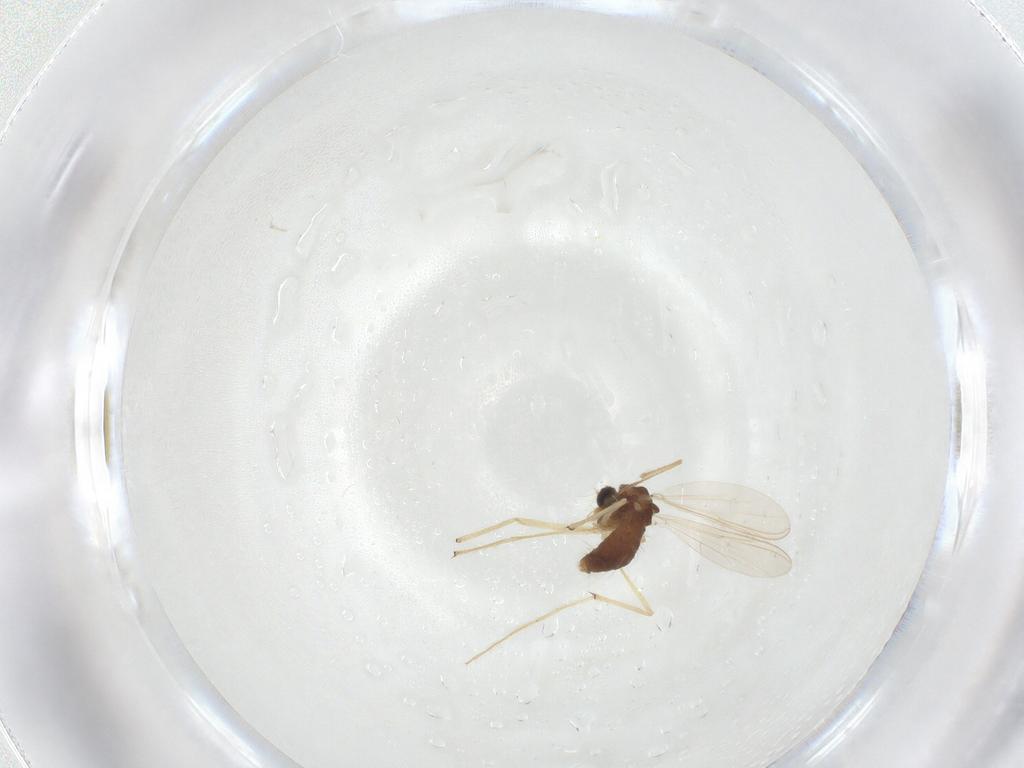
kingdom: Animalia
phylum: Arthropoda
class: Insecta
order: Diptera
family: Chironomidae
